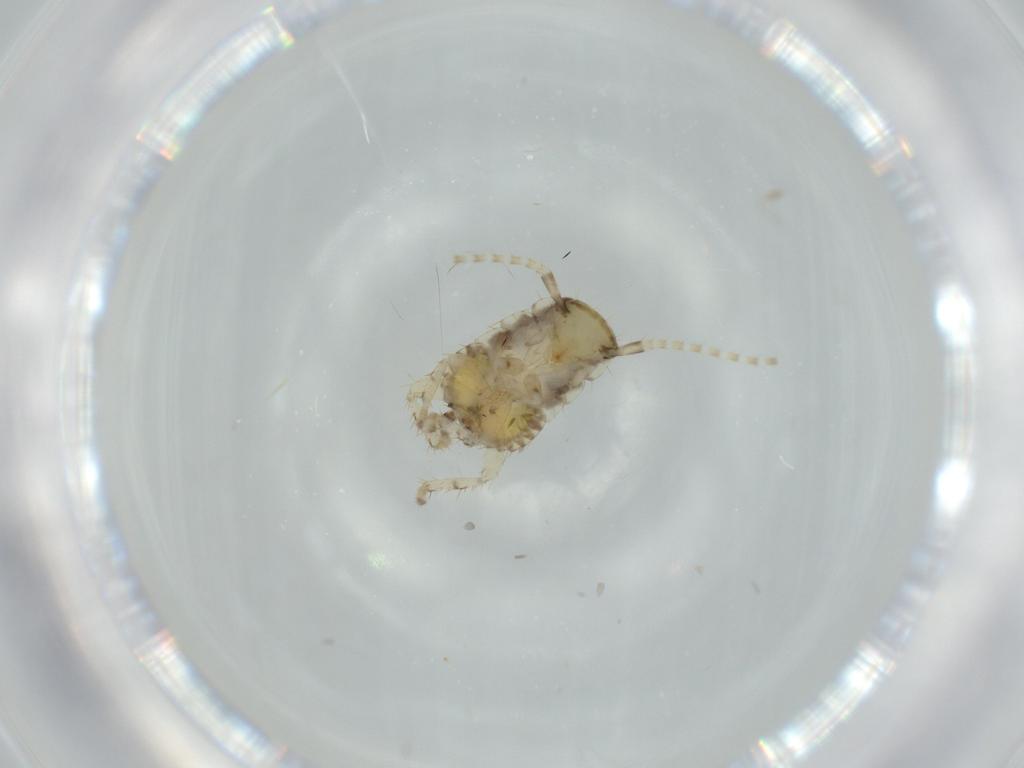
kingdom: Animalia
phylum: Arthropoda
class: Insecta
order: Blattodea
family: Ectobiidae
